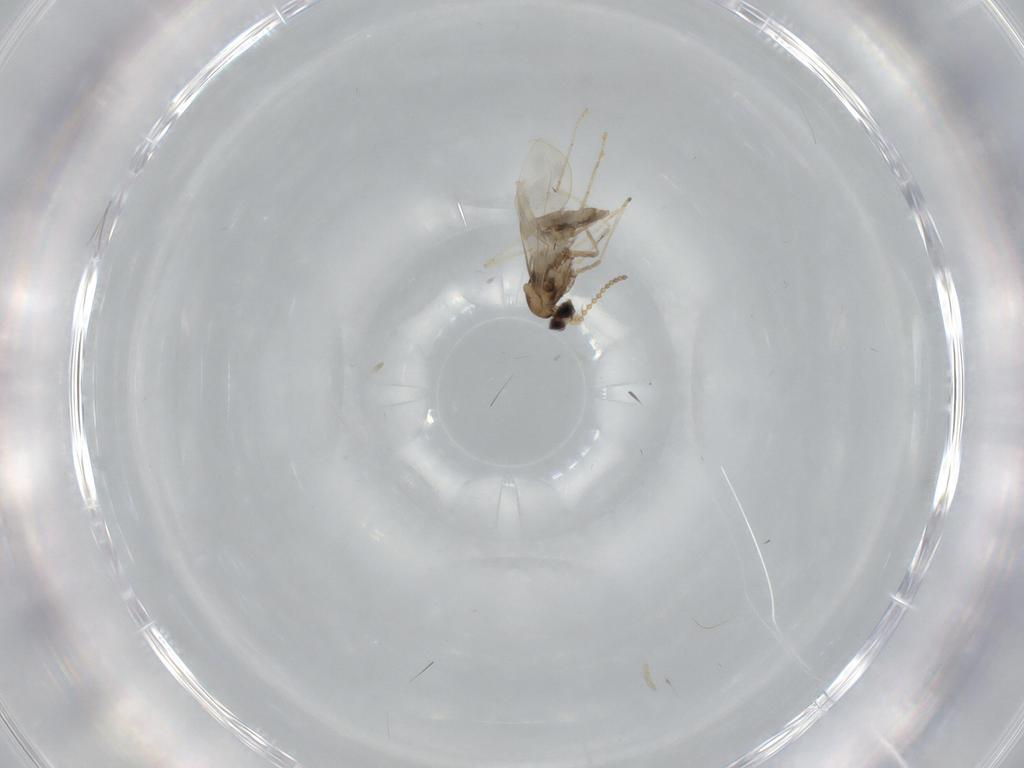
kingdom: Animalia
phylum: Arthropoda
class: Insecta
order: Diptera
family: Cecidomyiidae
